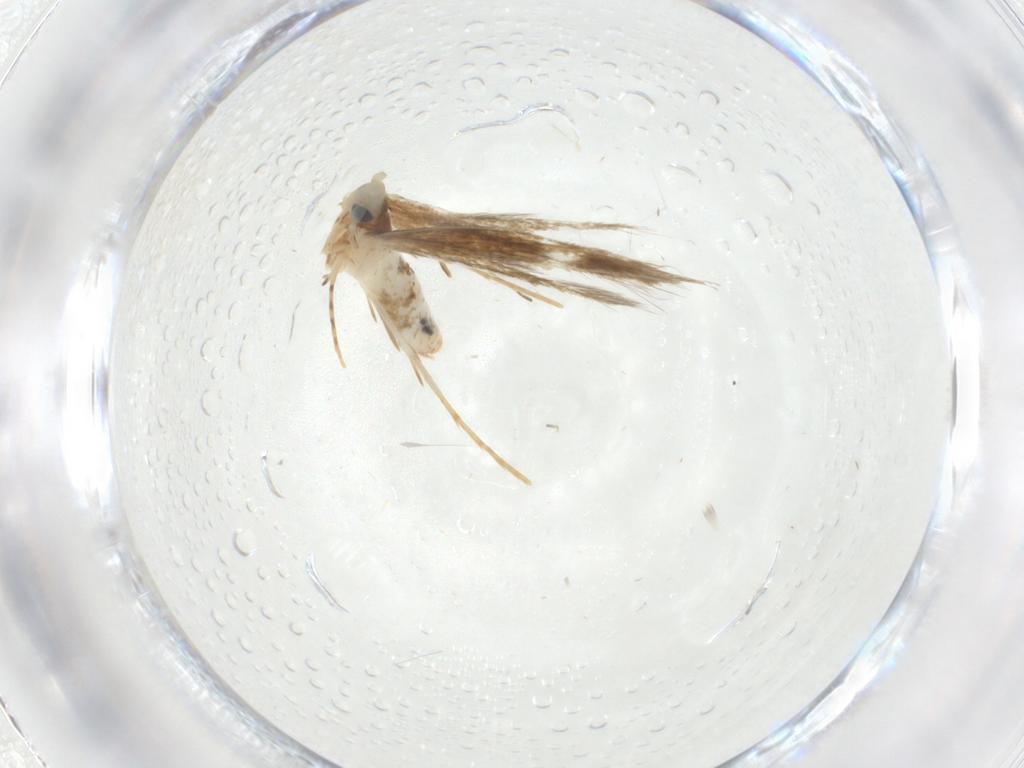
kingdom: Animalia
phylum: Arthropoda
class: Insecta
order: Lepidoptera
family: Psychidae
